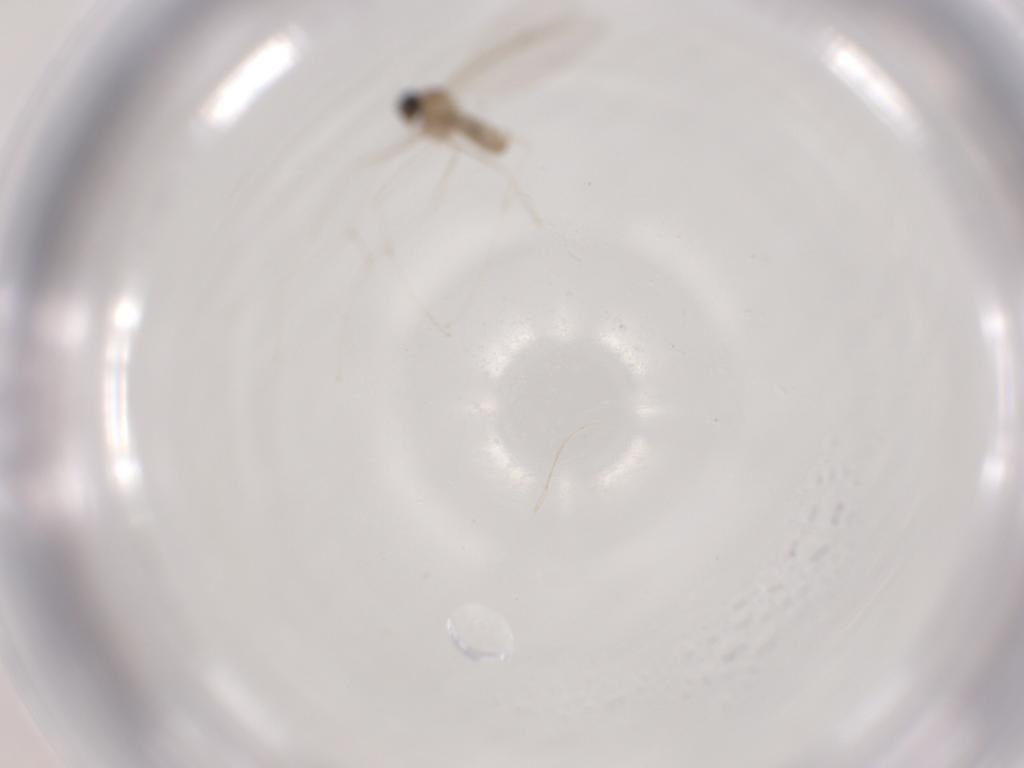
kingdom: Animalia
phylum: Arthropoda
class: Insecta
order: Diptera
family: Cecidomyiidae
